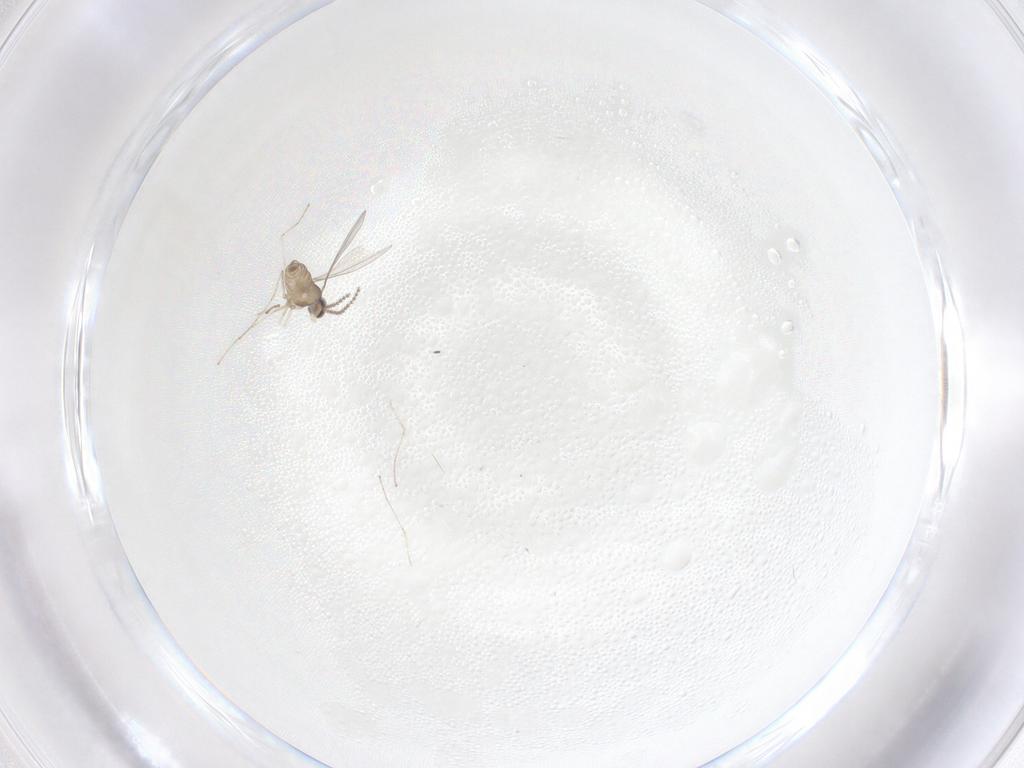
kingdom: Animalia
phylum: Arthropoda
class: Insecta
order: Diptera
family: Cecidomyiidae
